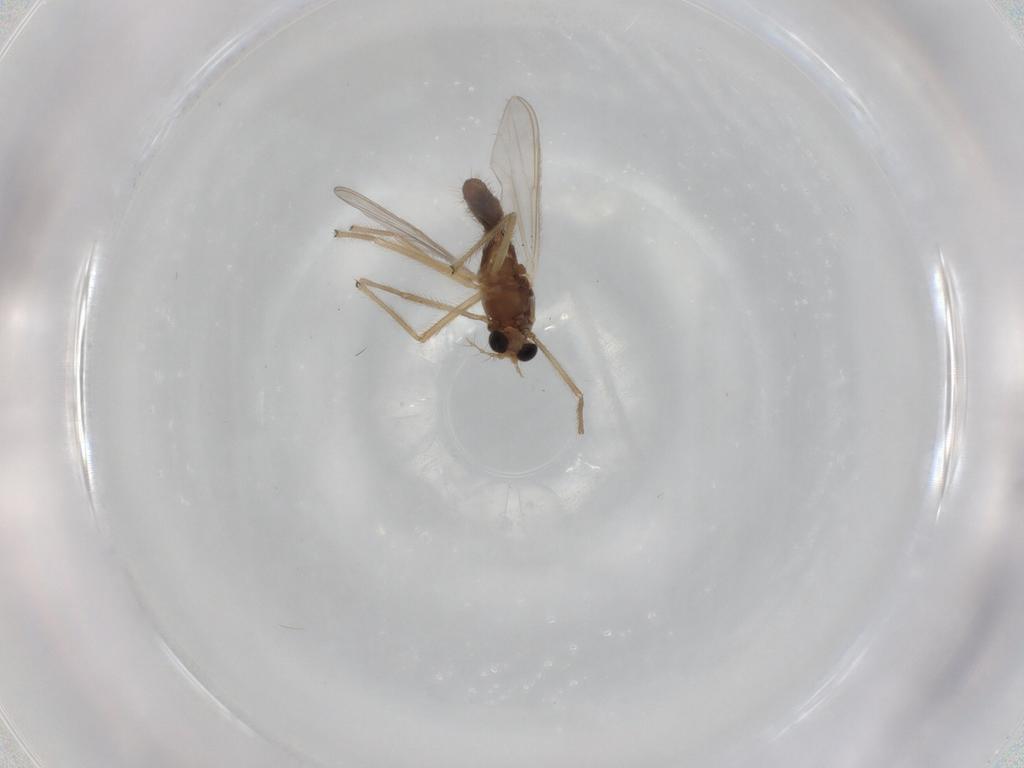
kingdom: Animalia
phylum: Arthropoda
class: Insecta
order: Diptera
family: Chironomidae
